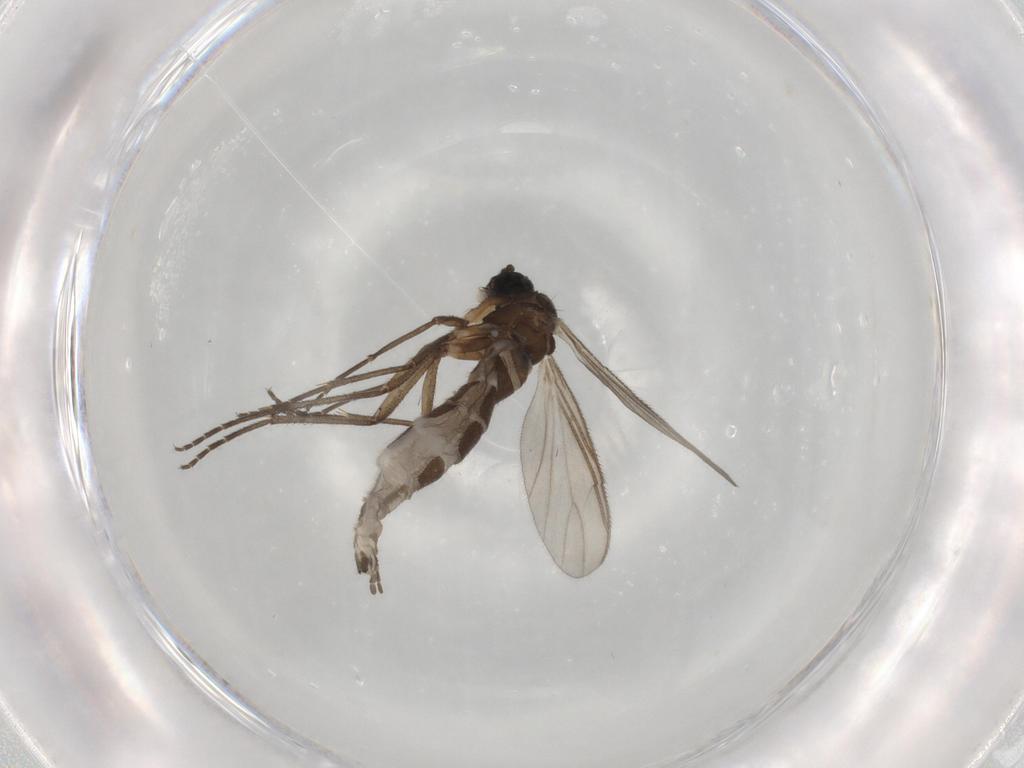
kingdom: Animalia
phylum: Arthropoda
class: Insecta
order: Diptera
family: Sciaridae
